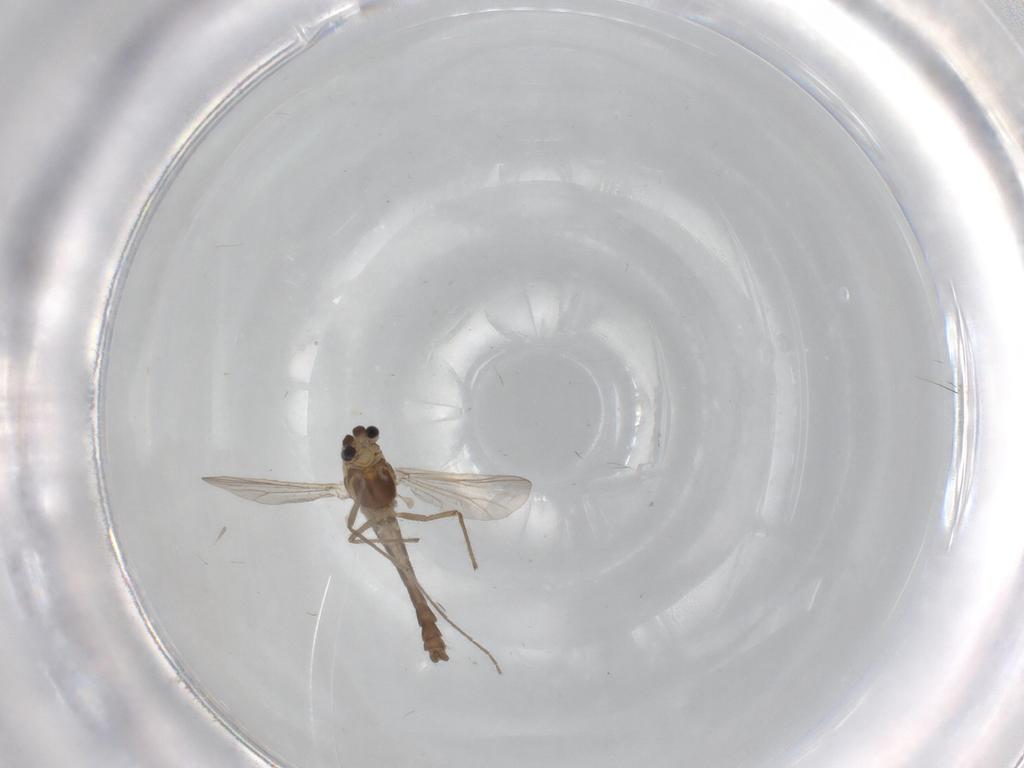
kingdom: Animalia
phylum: Arthropoda
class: Insecta
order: Diptera
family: Chironomidae
